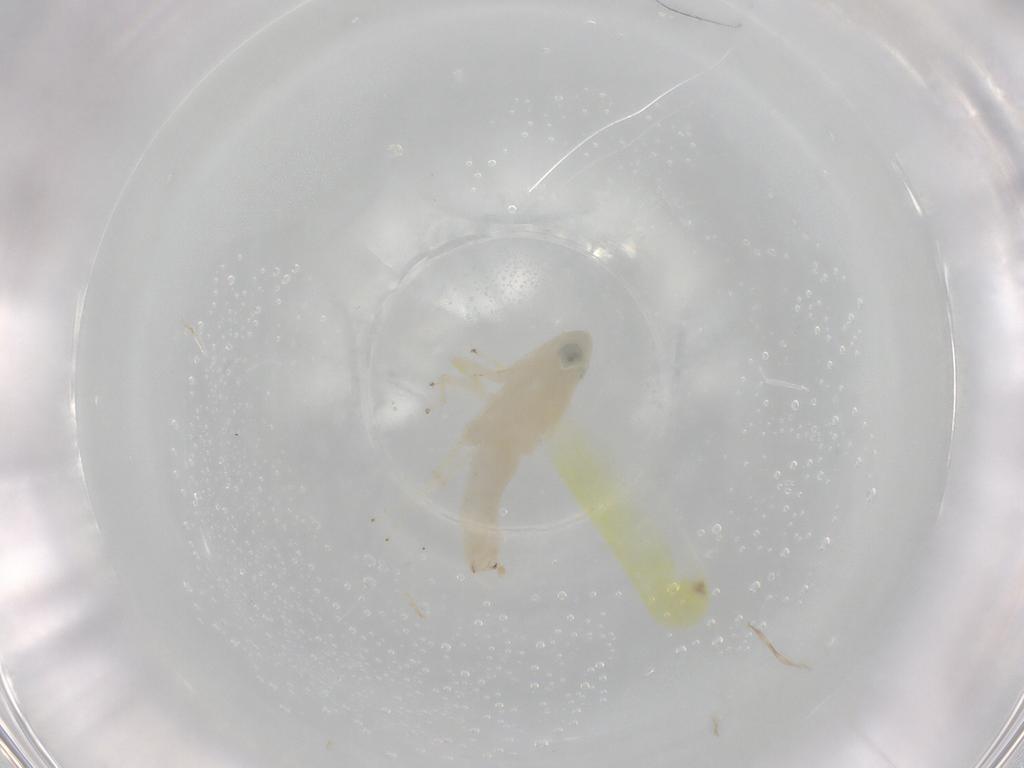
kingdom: Animalia
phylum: Arthropoda
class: Insecta
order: Hemiptera
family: Cicadellidae
